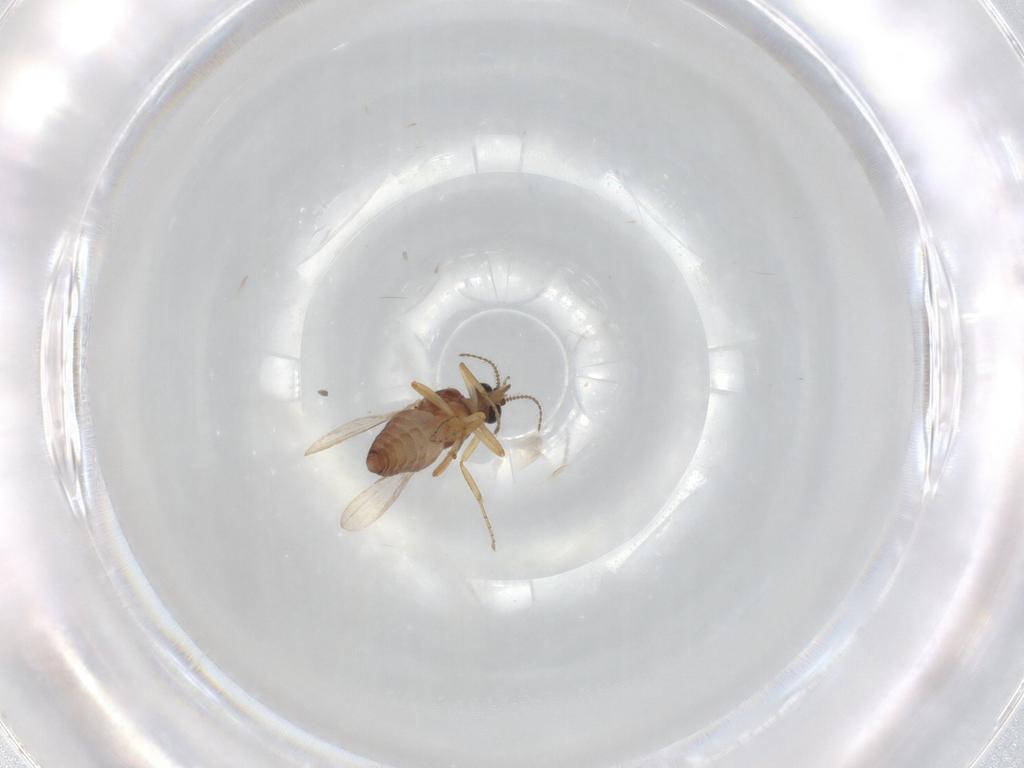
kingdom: Animalia
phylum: Arthropoda
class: Insecta
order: Diptera
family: Ceratopogonidae
